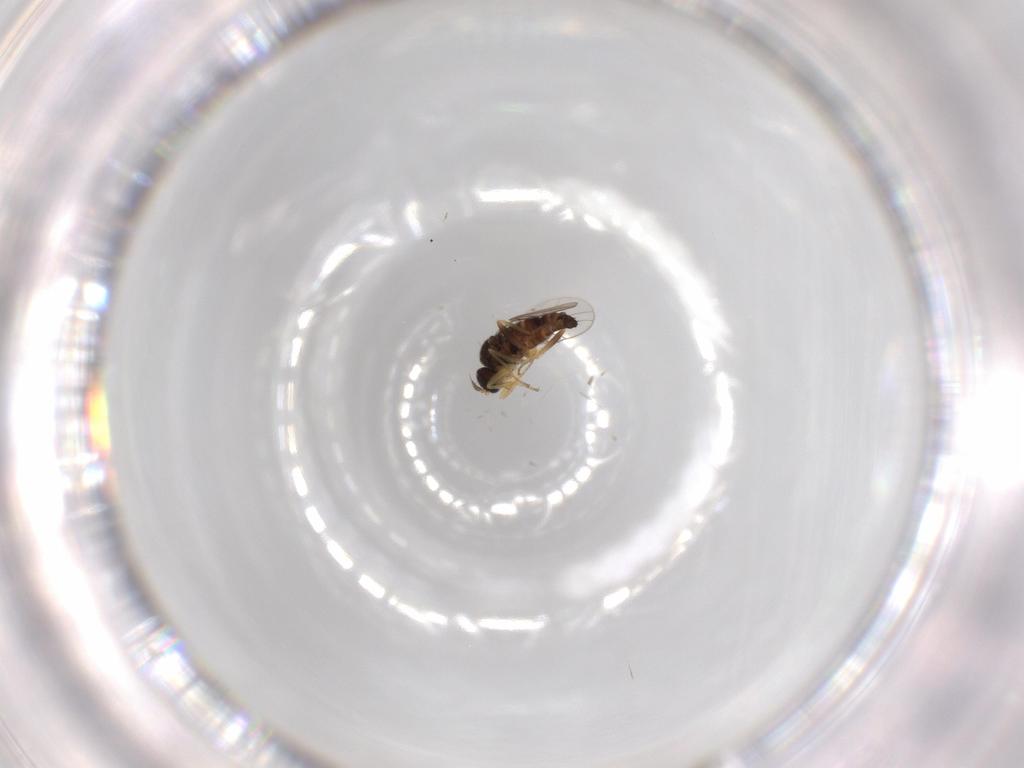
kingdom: Animalia
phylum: Arthropoda
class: Insecta
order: Diptera
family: Hybotidae
